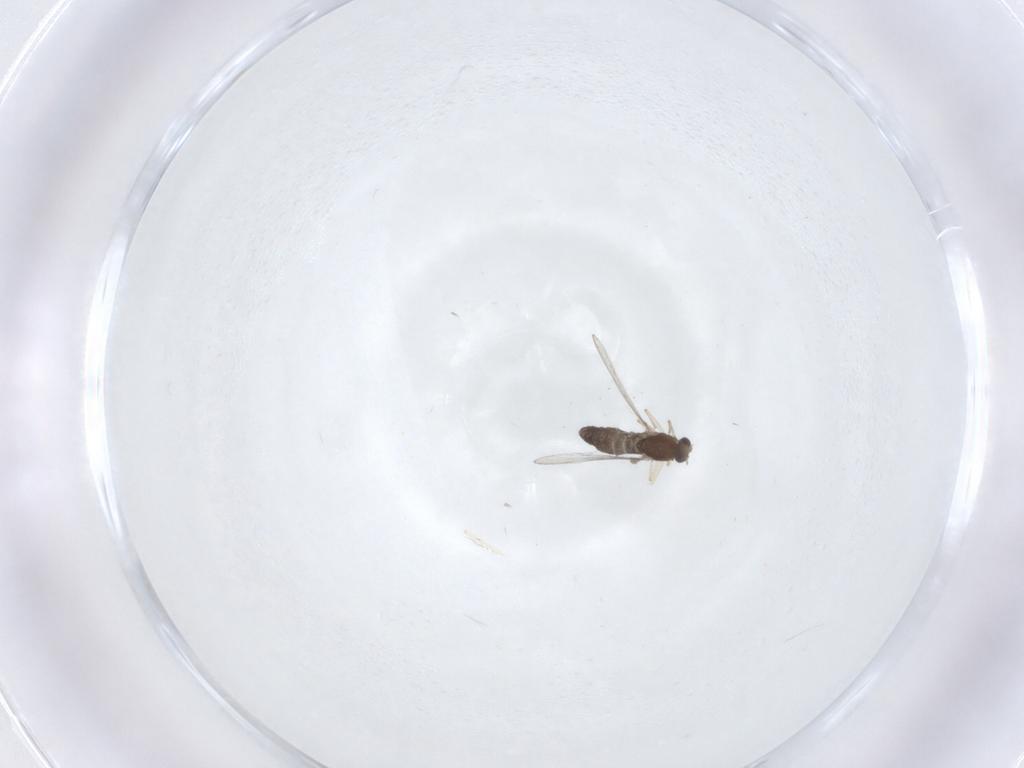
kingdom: Animalia
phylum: Arthropoda
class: Insecta
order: Diptera
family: Chironomidae
